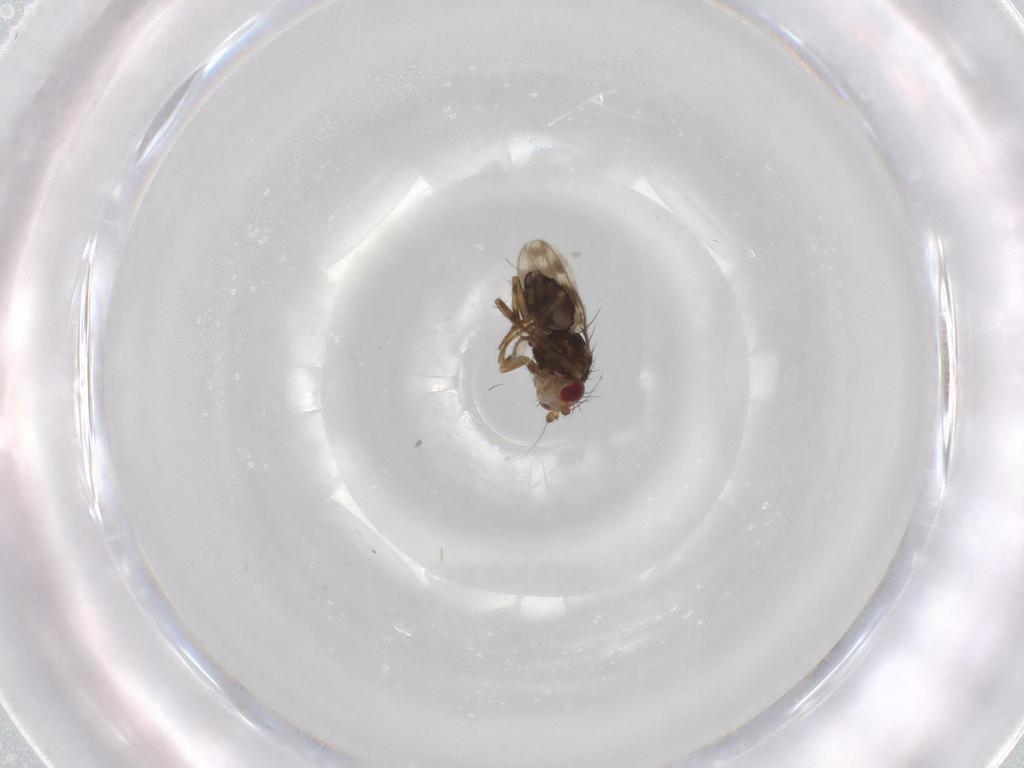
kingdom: Animalia
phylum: Arthropoda
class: Insecta
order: Diptera
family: Sphaeroceridae
